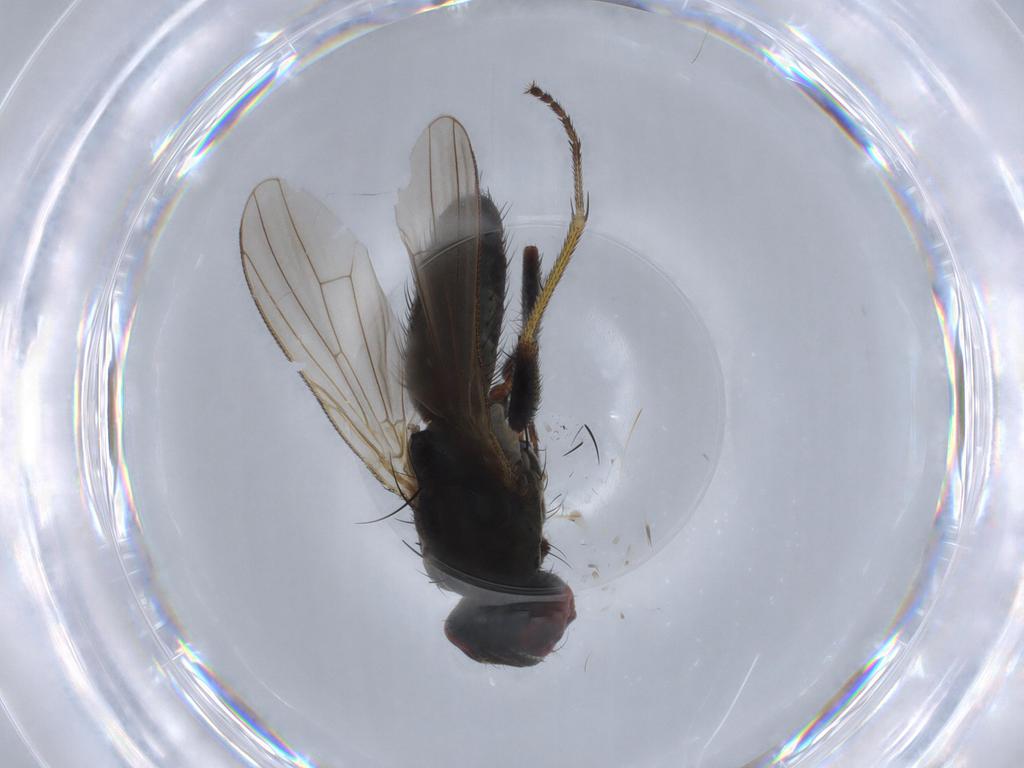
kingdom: Animalia
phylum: Arthropoda
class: Insecta
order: Diptera
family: Muscidae
